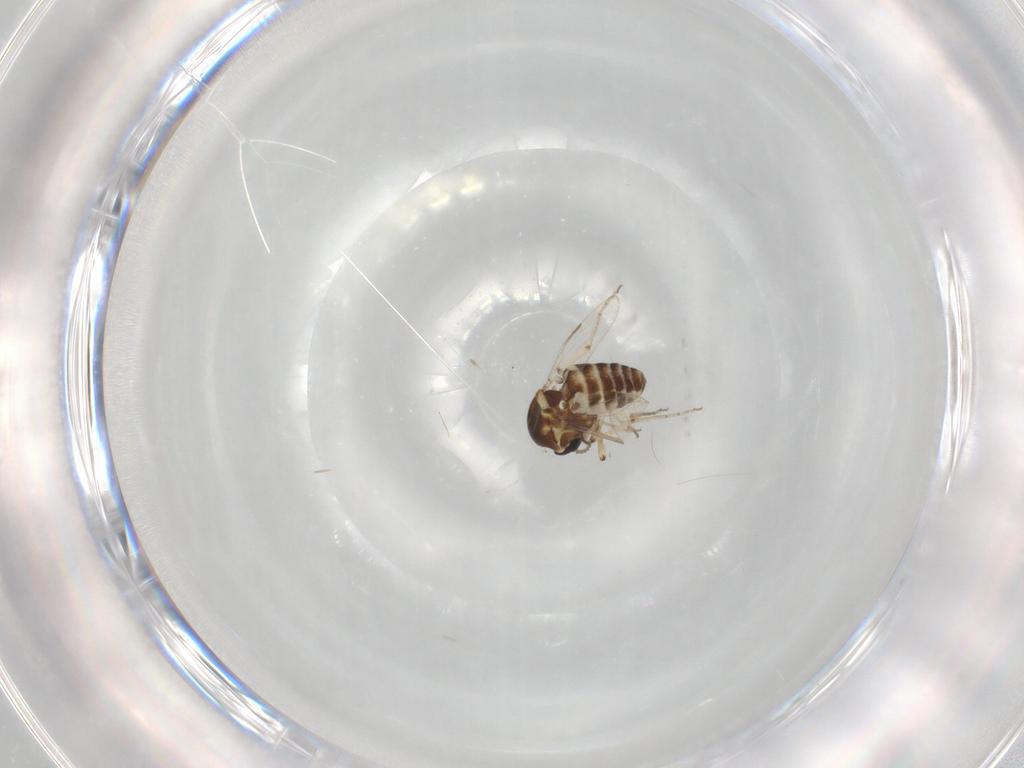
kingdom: Animalia
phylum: Arthropoda
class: Insecta
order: Diptera
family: Ceratopogonidae
